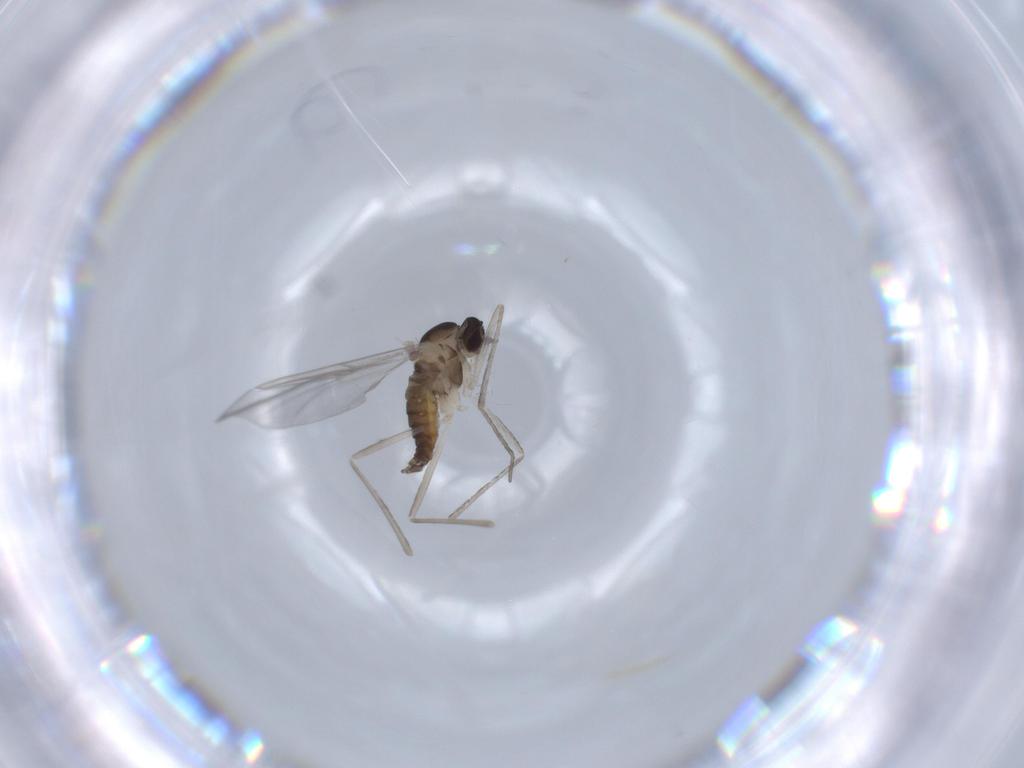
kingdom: Animalia
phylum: Arthropoda
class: Insecta
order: Diptera
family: Cecidomyiidae
